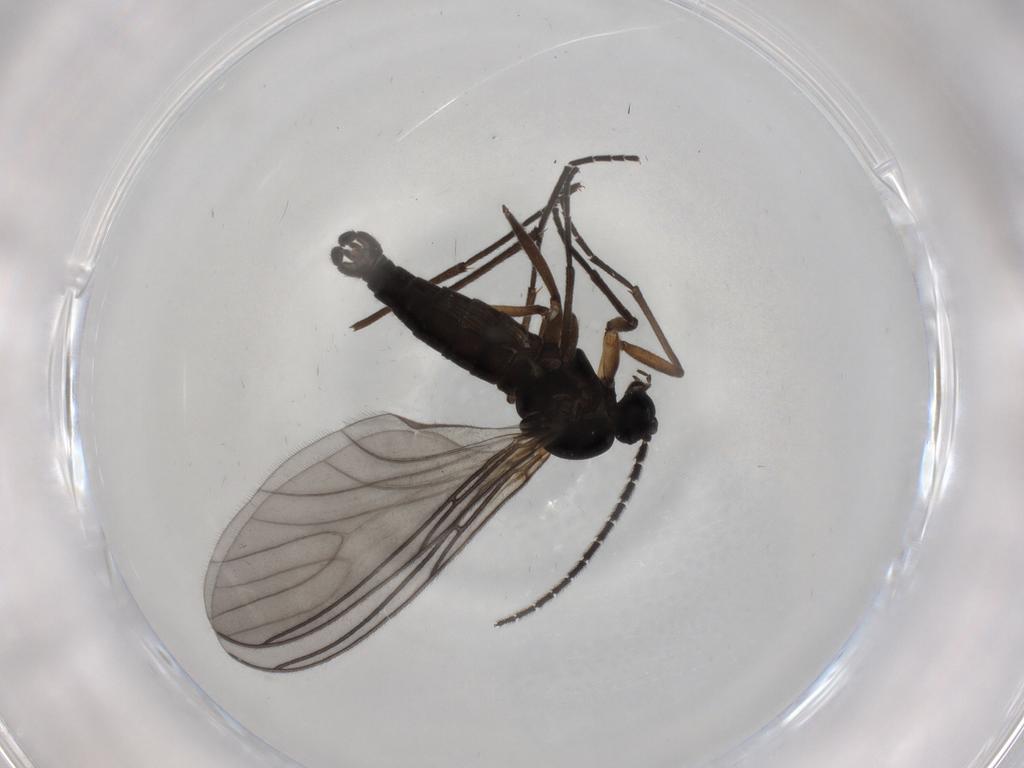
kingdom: Animalia
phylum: Arthropoda
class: Insecta
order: Diptera
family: Sciaridae
